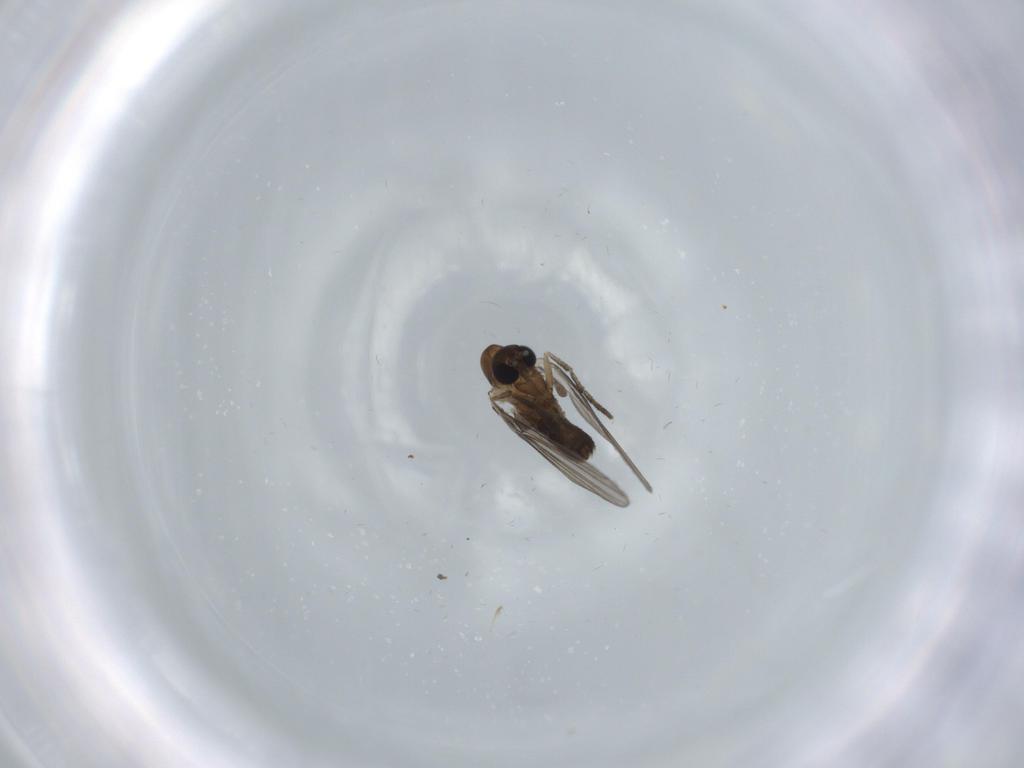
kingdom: Animalia
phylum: Arthropoda
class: Insecta
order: Diptera
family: Psychodidae
